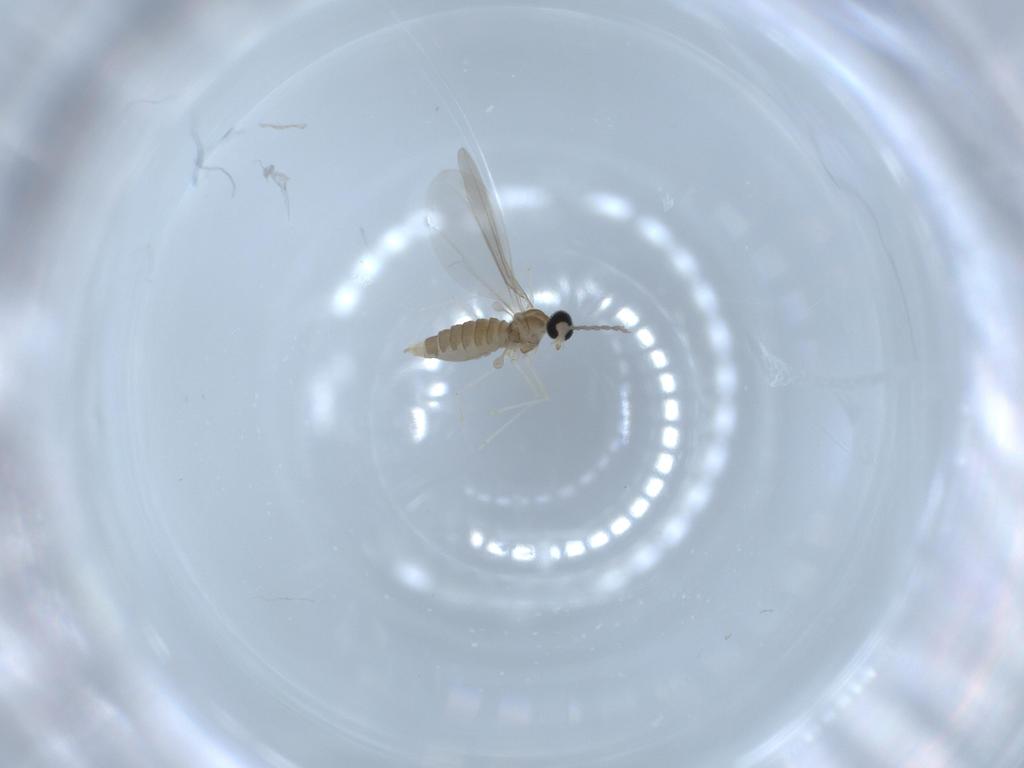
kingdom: Animalia
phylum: Arthropoda
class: Insecta
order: Diptera
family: Cecidomyiidae
